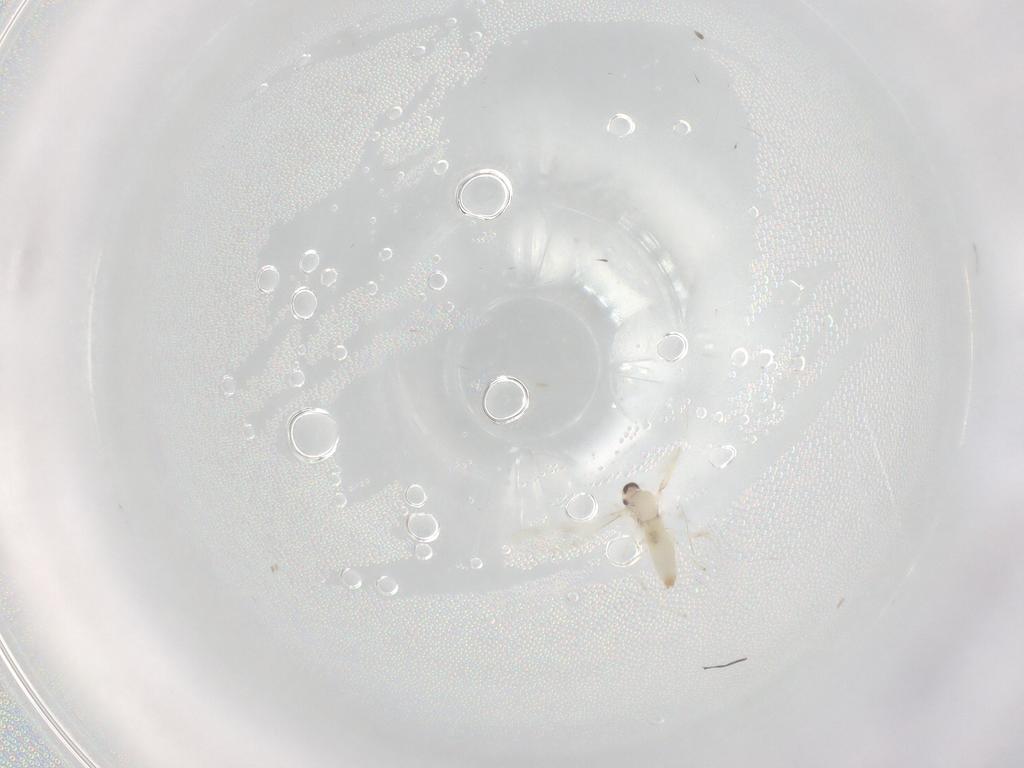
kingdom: Animalia
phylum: Arthropoda
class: Insecta
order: Diptera
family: Cecidomyiidae
